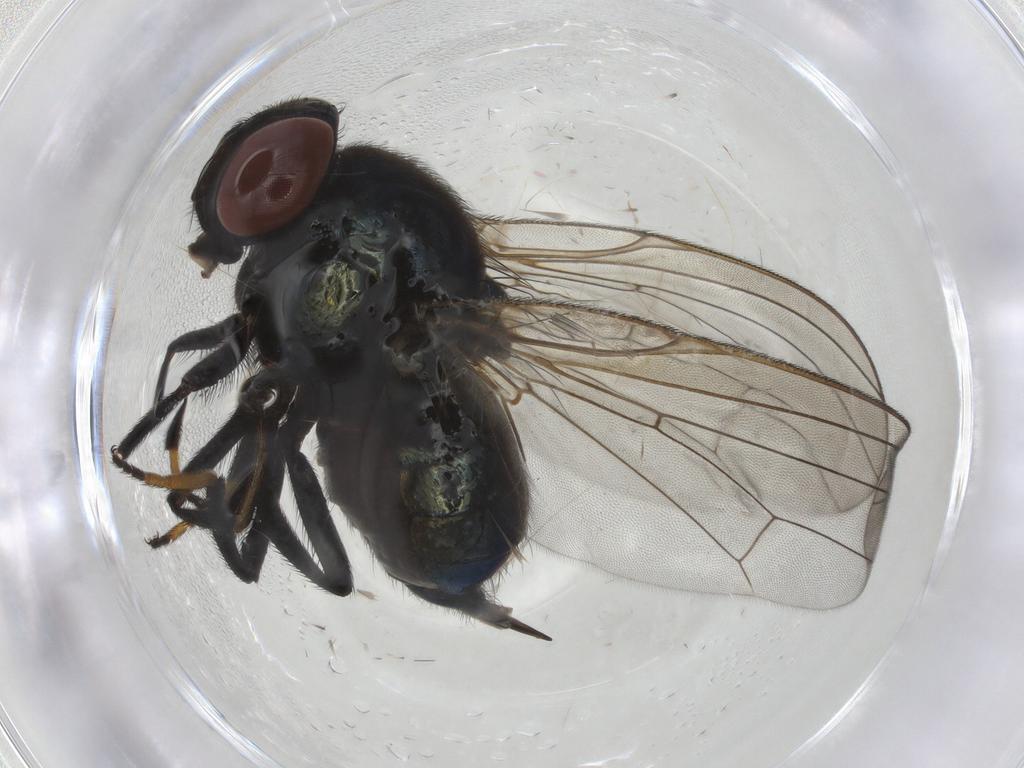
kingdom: Animalia
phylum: Arthropoda
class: Insecta
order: Diptera
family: Lonchaeidae
